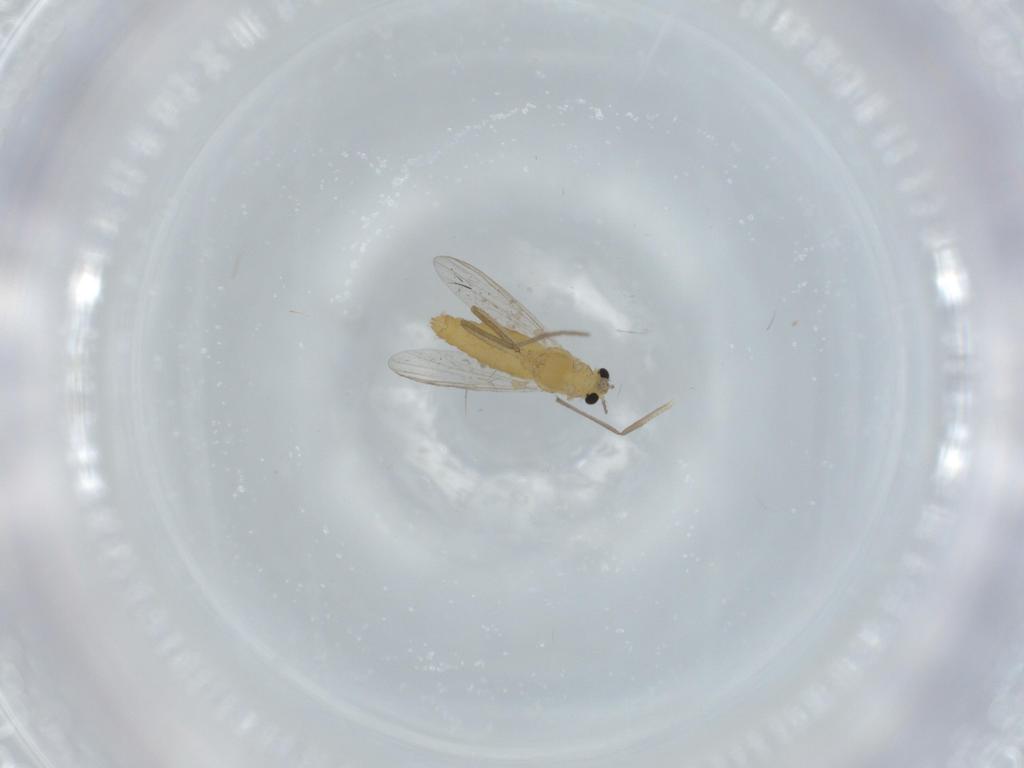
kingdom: Animalia
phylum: Arthropoda
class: Insecta
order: Diptera
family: Chironomidae
